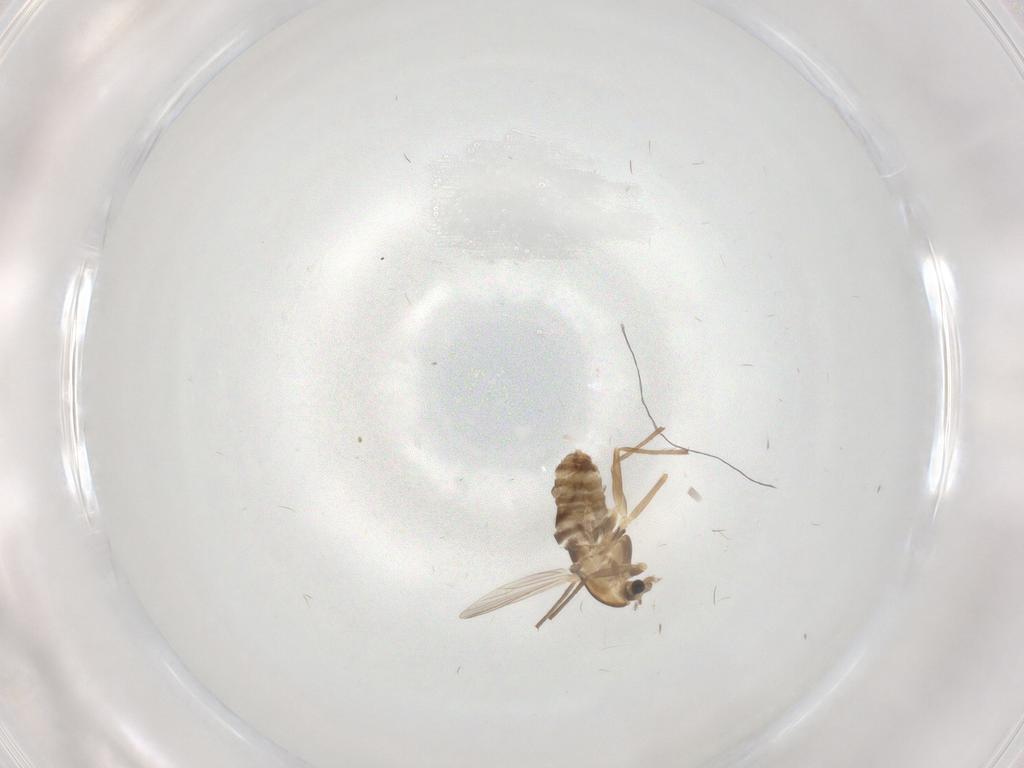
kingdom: Animalia
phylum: Arthropoda
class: Insecta
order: Diptera
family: Chironomidae
